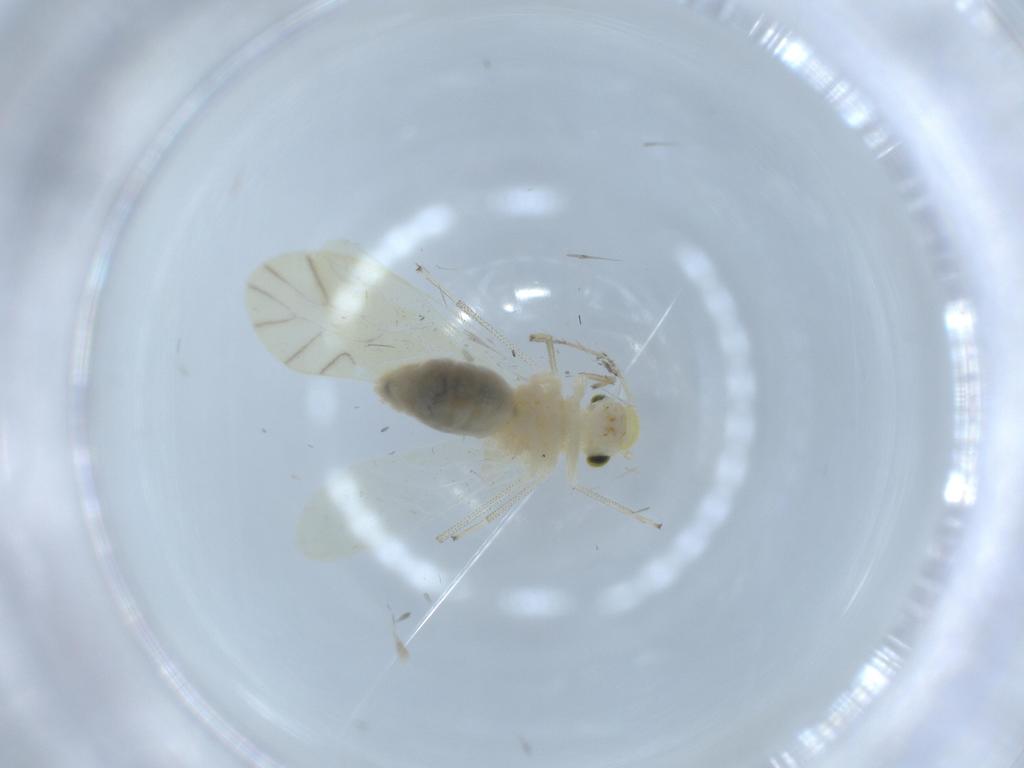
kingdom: Animalia
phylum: Arthropoda
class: Insecta
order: Psocodea
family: Caeciliusidae
